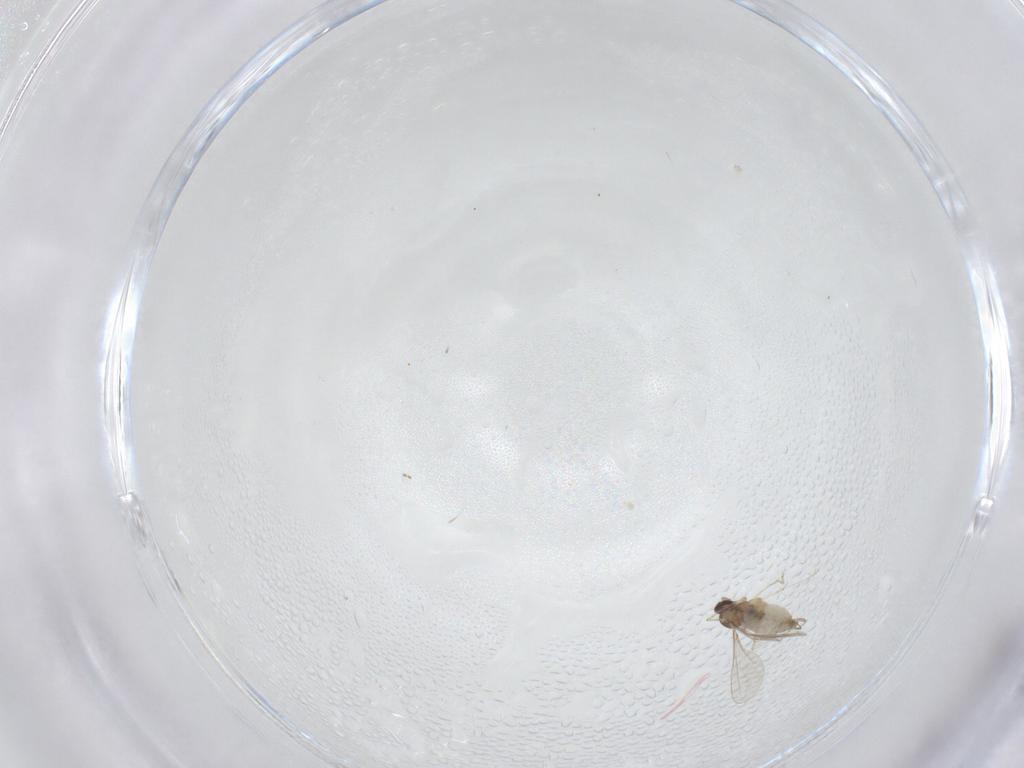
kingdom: Animalia
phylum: Arthropoda
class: Insecta
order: Diptera
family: Cecidomyiidae
